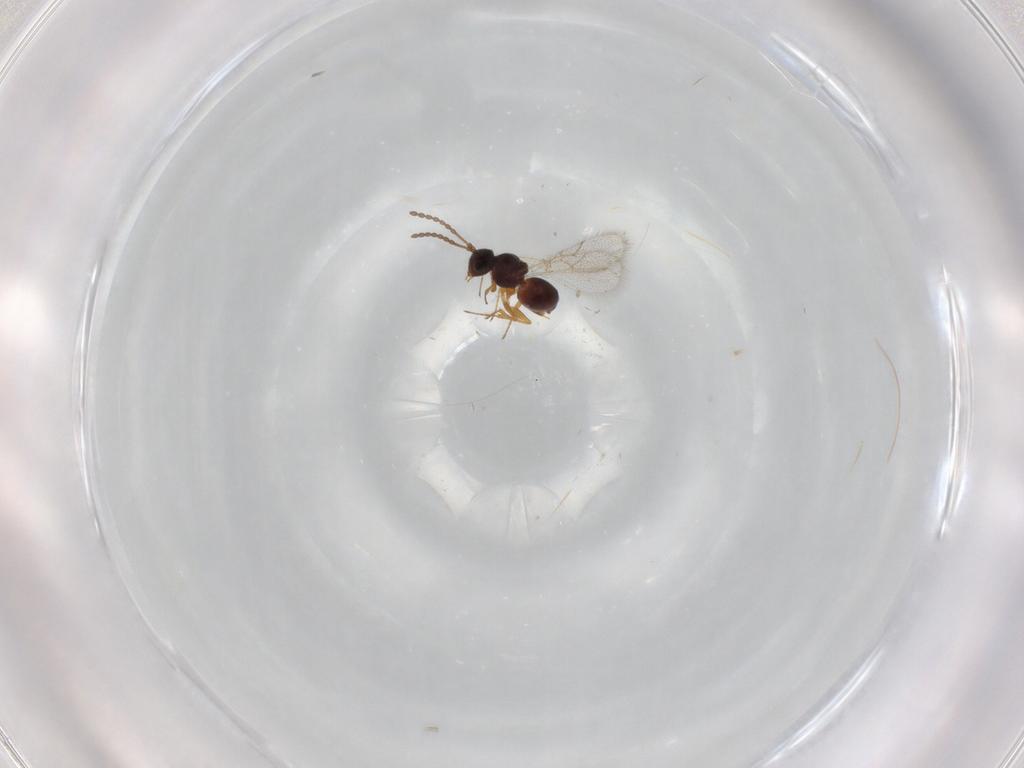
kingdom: Animalia
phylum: Arthropoda
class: Insecta
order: Hymenoptera
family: Figitidae
